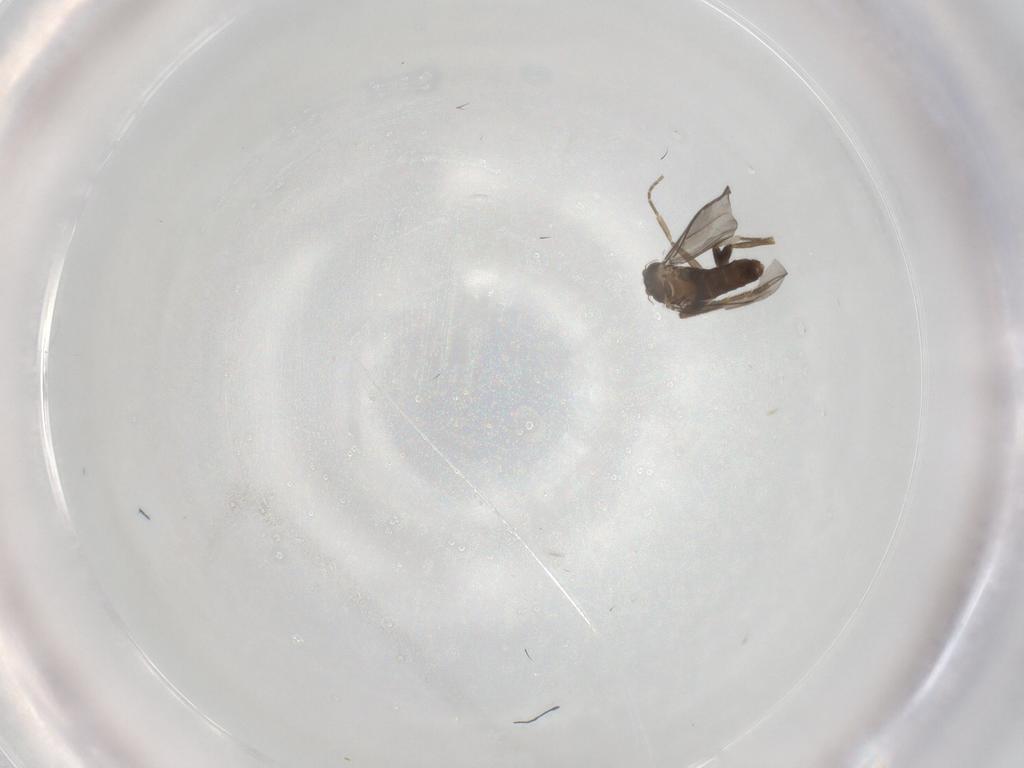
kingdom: Animalia
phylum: Arthropoda
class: Insecta
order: Diptera
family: Phoridae
